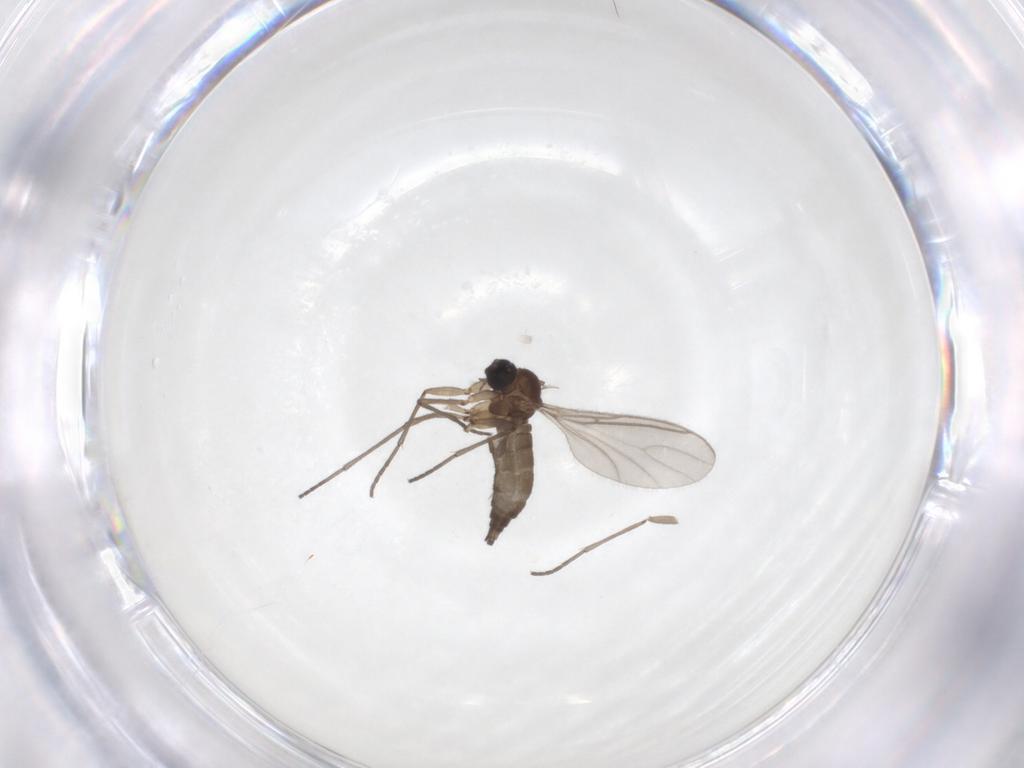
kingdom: Animalia
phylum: Arthropoda
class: Insecta
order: Diptera
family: Sciaridae
